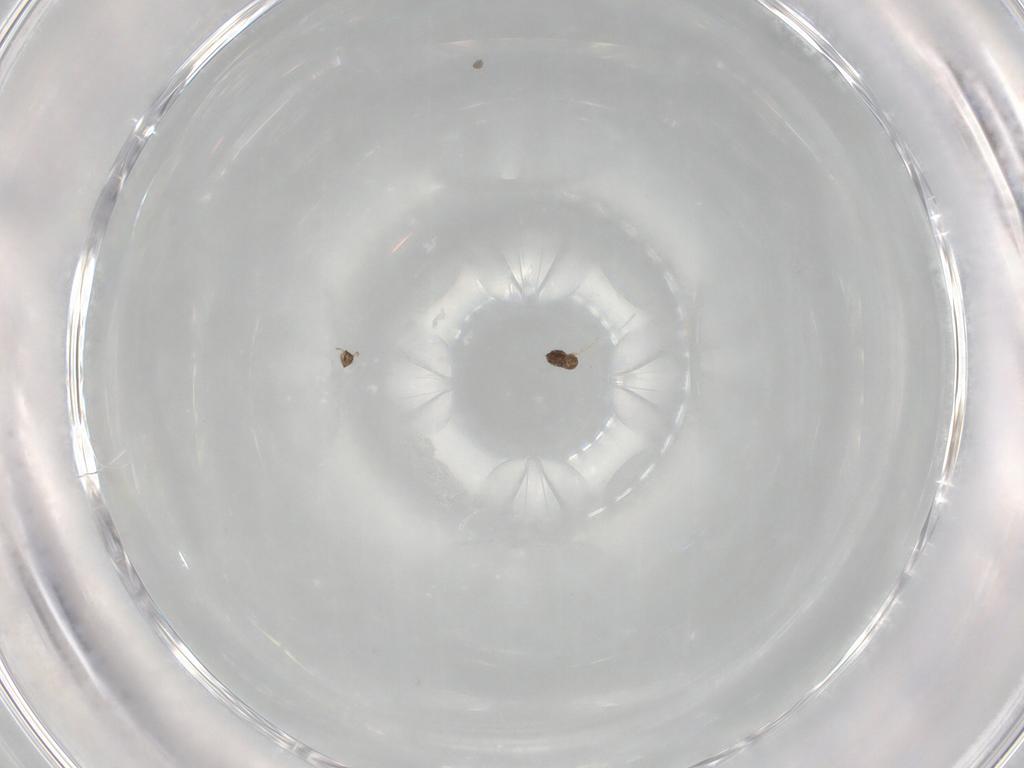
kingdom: Animalia
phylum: Arthropoda
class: Insecta
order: Hymenoptera
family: Mymaridae
